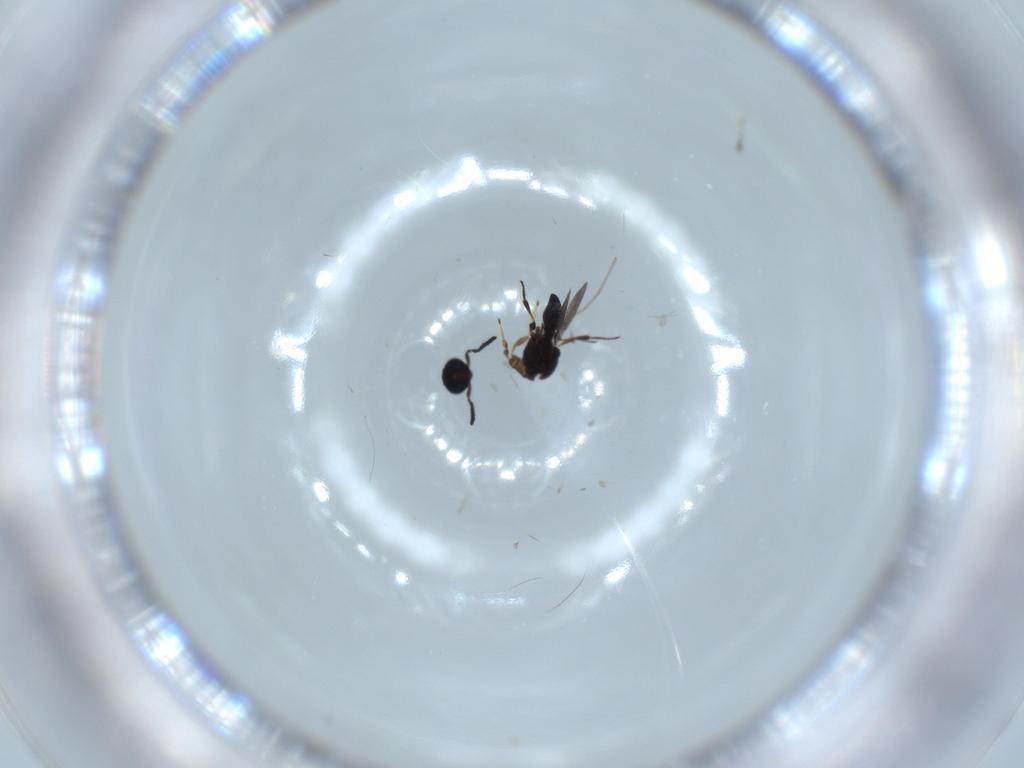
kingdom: Animalia
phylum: Arthropoda
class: Insecta
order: Hymenoptera
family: Platygastridae
